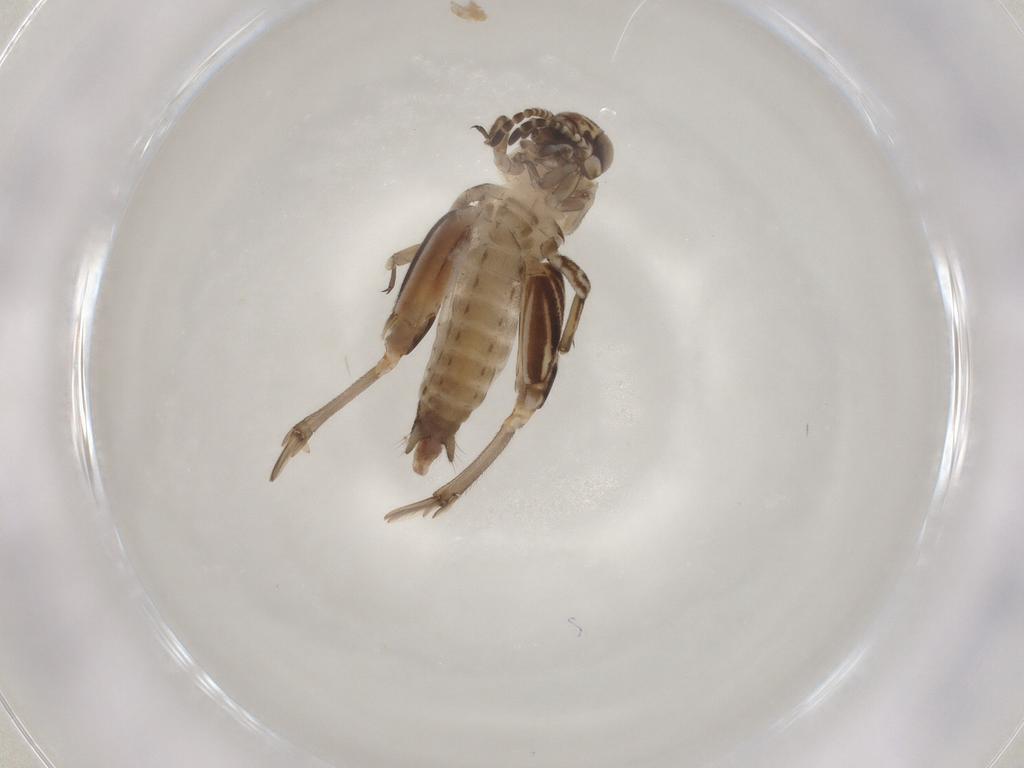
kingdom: Animalia
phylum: Arthropoda
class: Insecta
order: Orthoptera
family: Ripipterygidae
